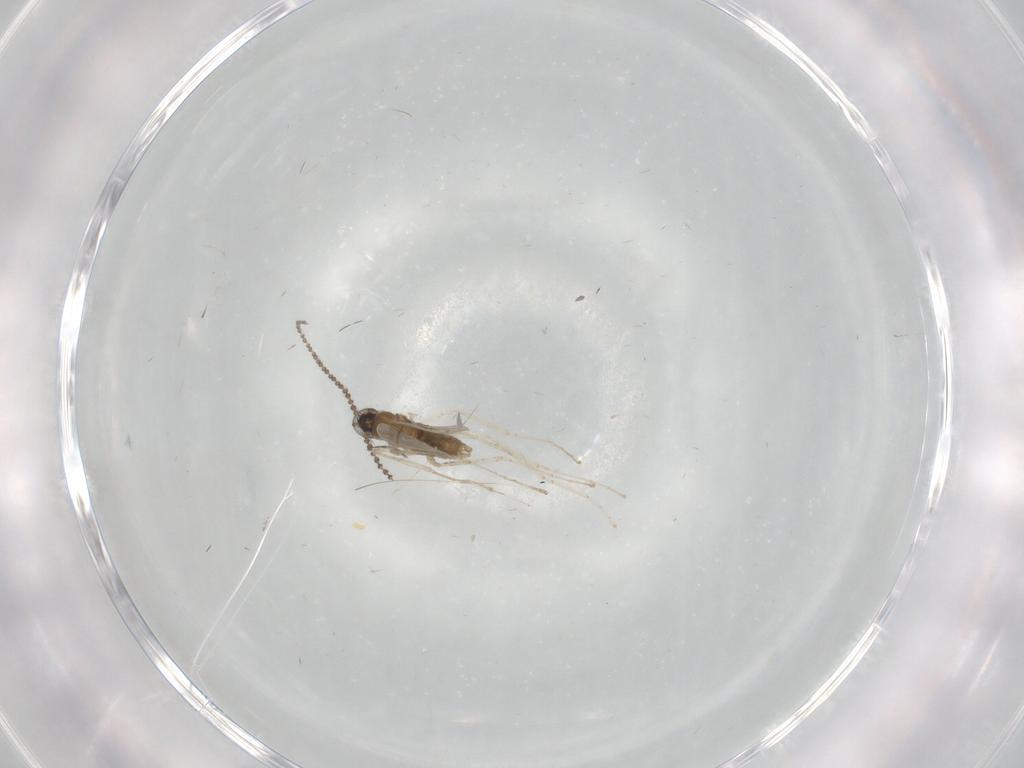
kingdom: Animalia
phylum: Arthropoda
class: Insecta
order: Diptera
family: Cecidomyiidae
